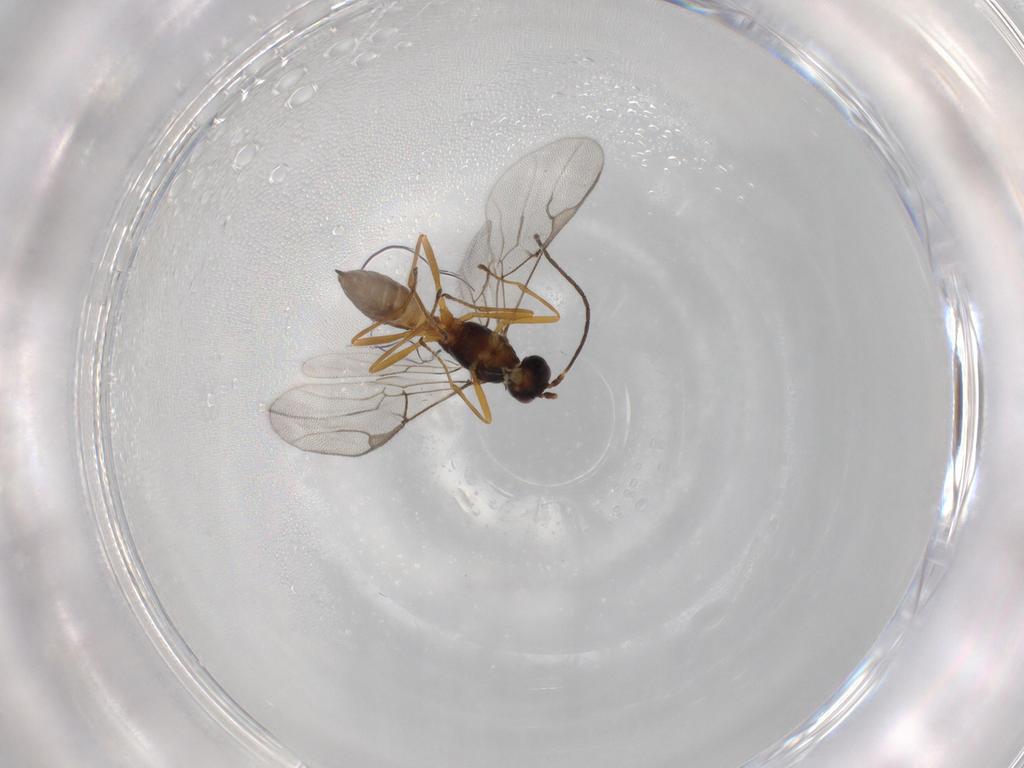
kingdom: Animalia
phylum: Arthropoda
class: Insecta
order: Hymenoptera
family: Braconidae
